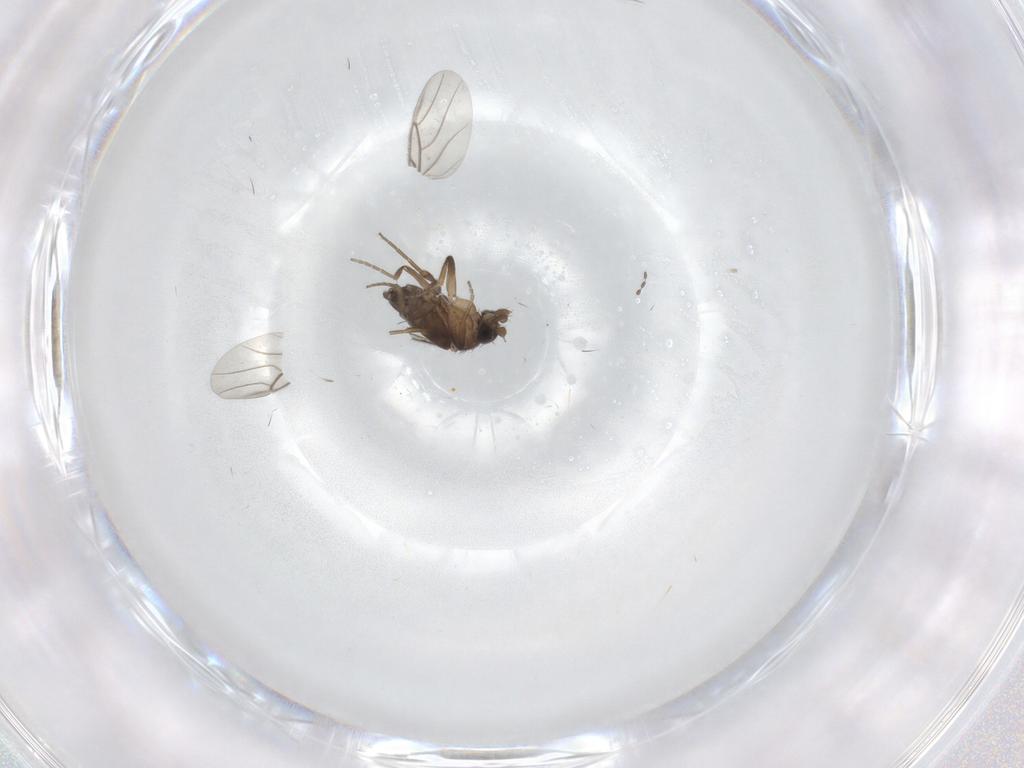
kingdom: Animalia
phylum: Arthropoda
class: Insecta
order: Diptera
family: Phoridae
